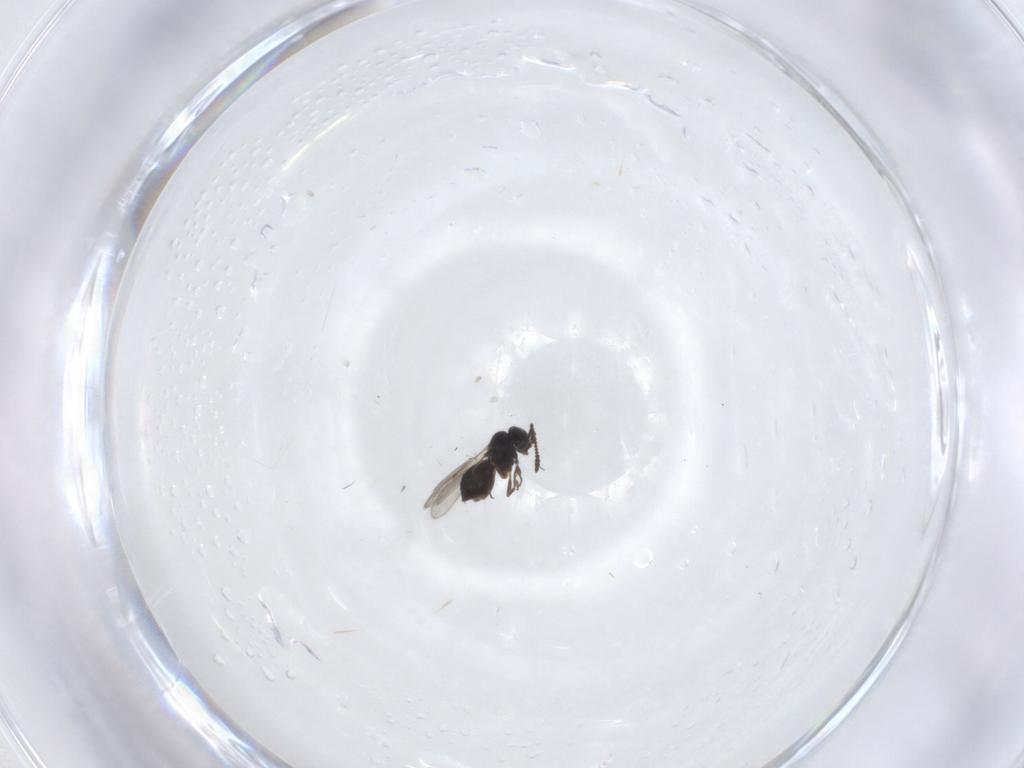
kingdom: Animalia
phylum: Arthropoda
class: Insecta
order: Hymenoptera
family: Scelionidae
